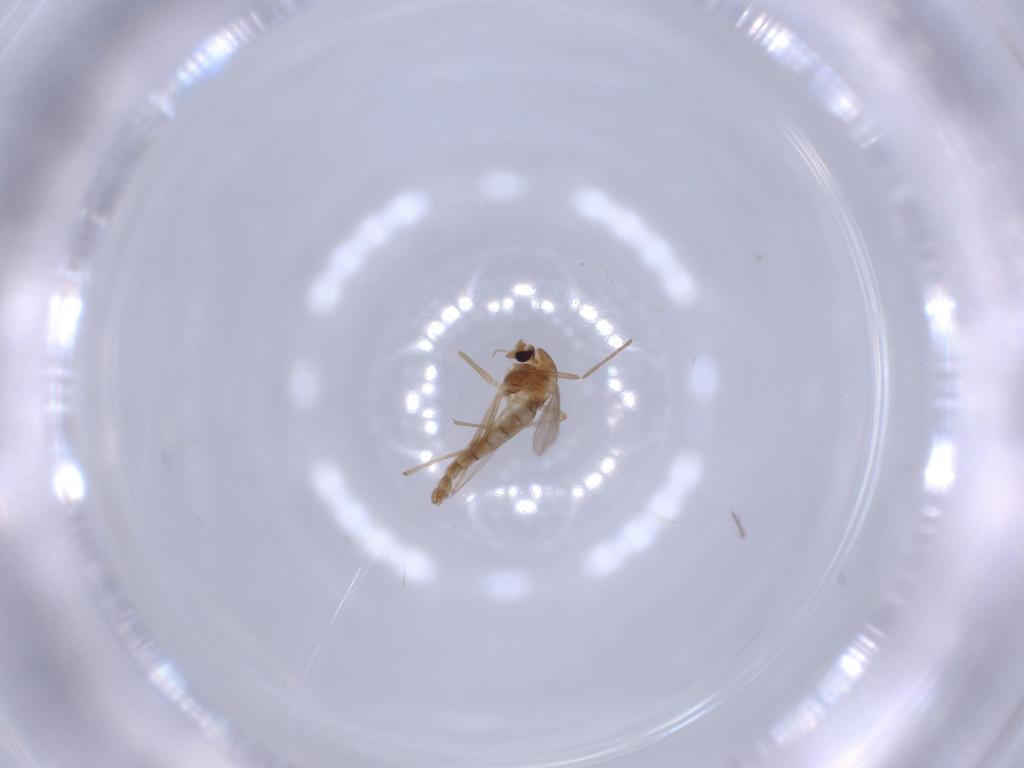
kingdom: Animalia
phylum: Arthropoda
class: Insecta
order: Diptera
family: Chironomidae
